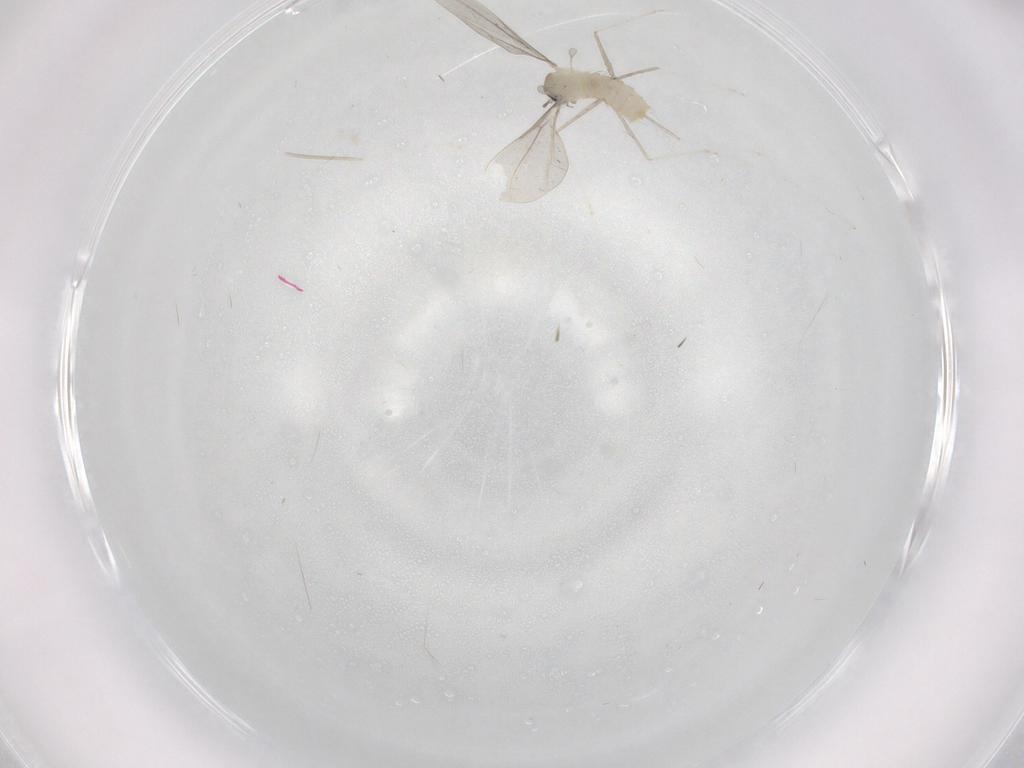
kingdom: Animalia
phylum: Arthropoda
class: Insecta
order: Diptera
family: Cecidomyiidae
